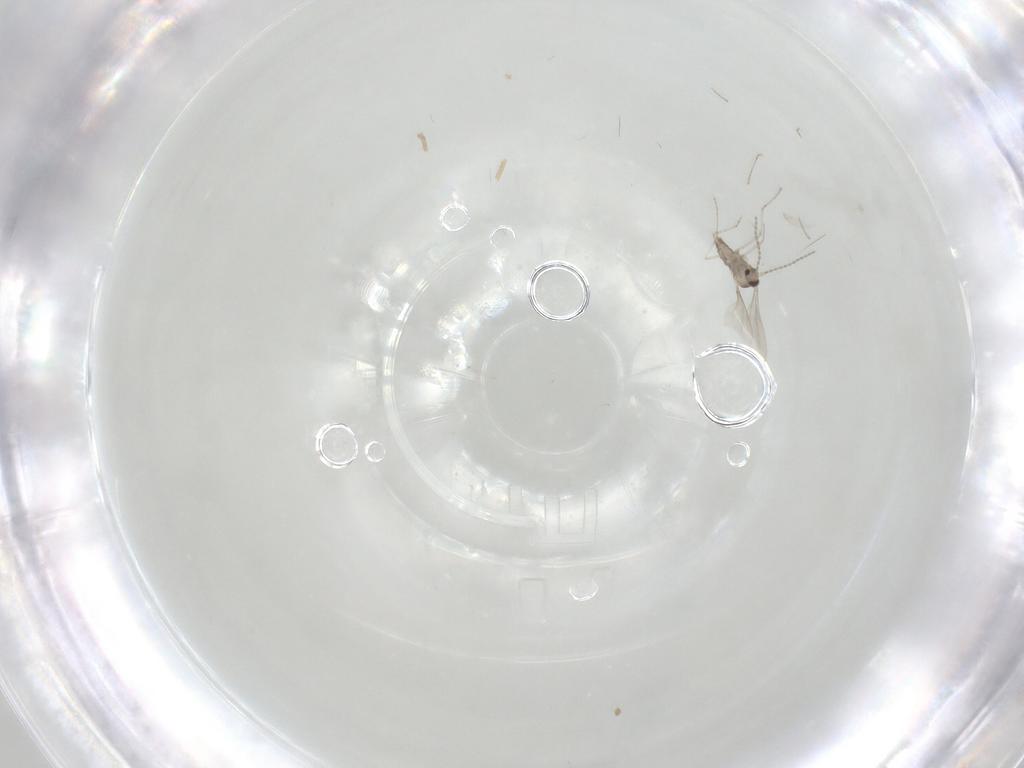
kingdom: Animalia
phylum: Arthropoda
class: Insecta
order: Diptera
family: Cecidomyiidae
